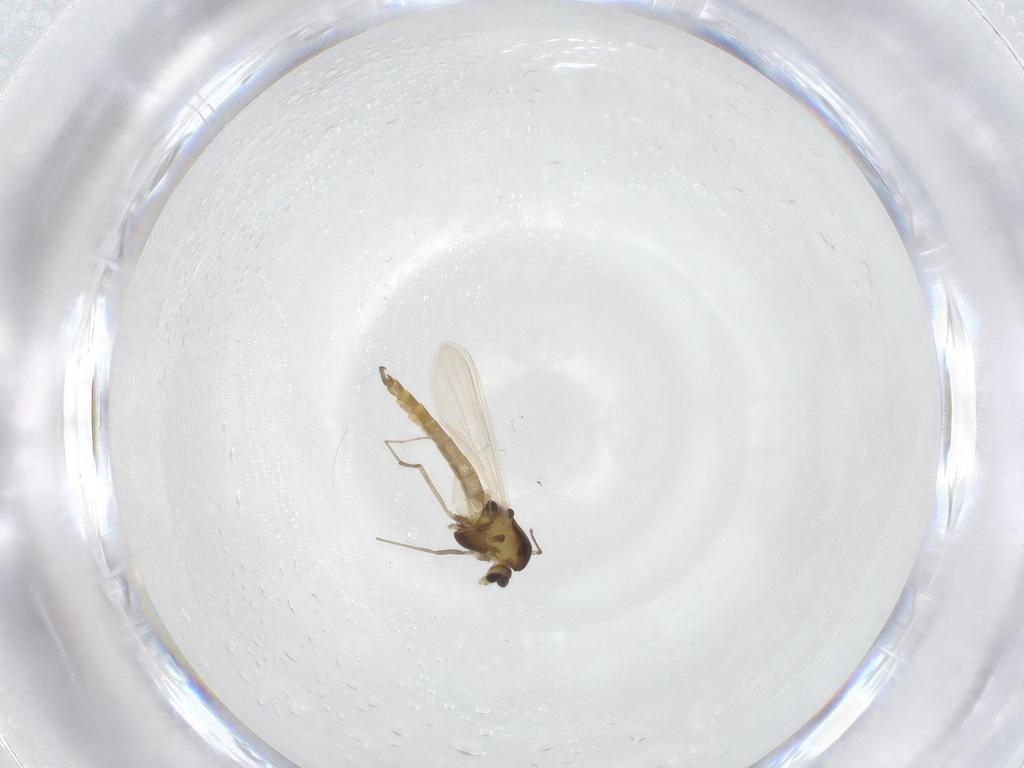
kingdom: Animalia
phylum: Arthropoda
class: Insecta
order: Diptera
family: Chironomidae
